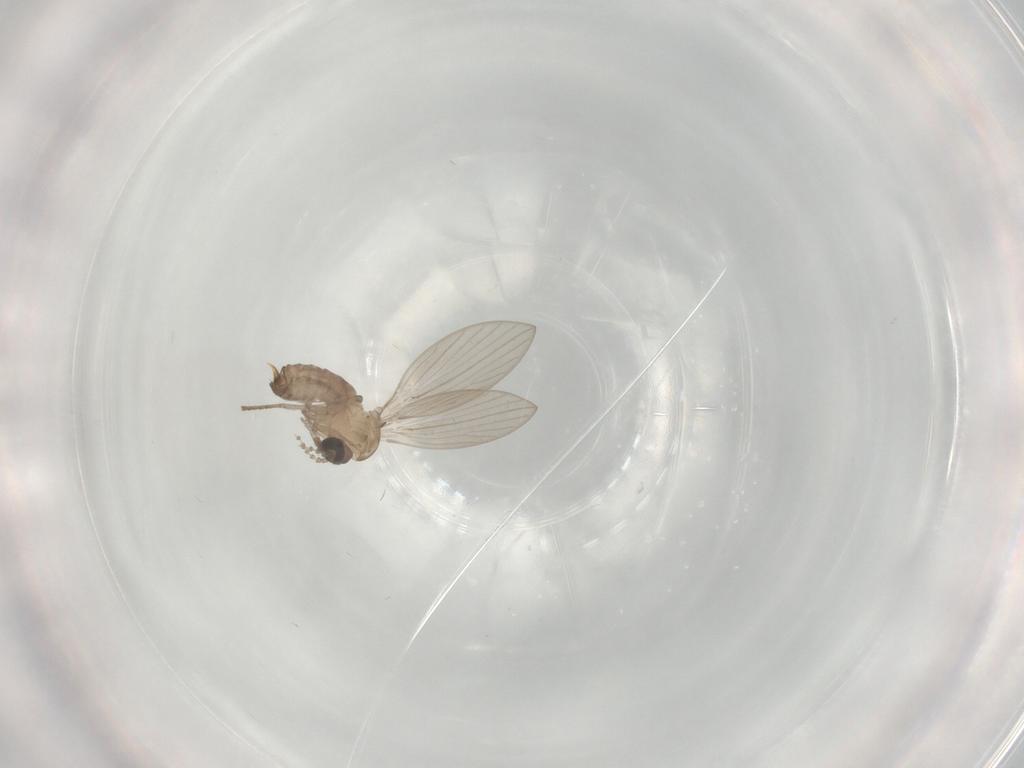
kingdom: Animalia
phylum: Arthropoda
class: Insecta
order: Diptera
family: Psychodidae
